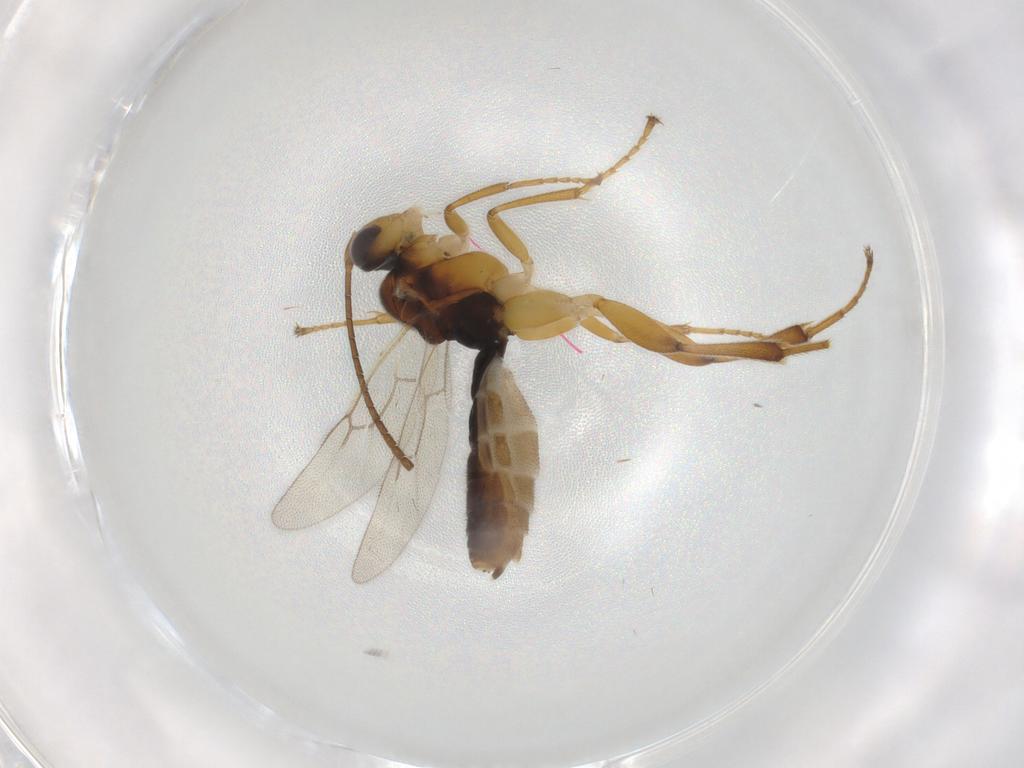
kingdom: Animalia
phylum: Arthropoda
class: Insecta
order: Hymenoptera
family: Ichneumonidae
